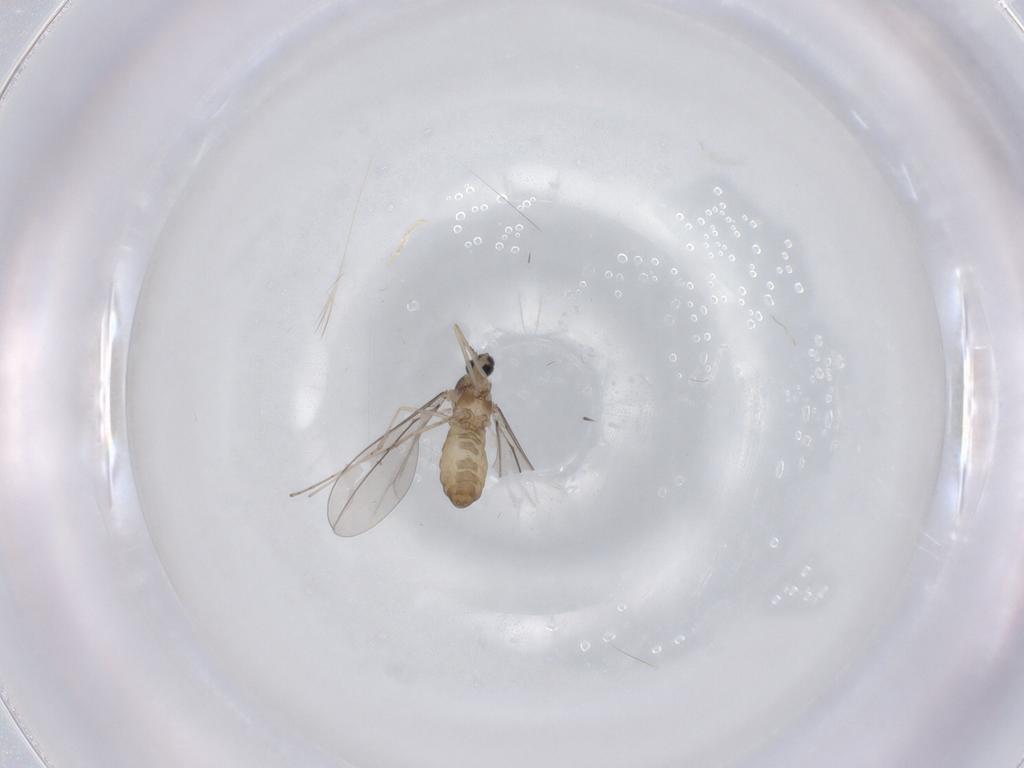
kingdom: Animalia
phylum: Arthropoda
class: Insecta
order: Diptera
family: Cecidomyiidae
